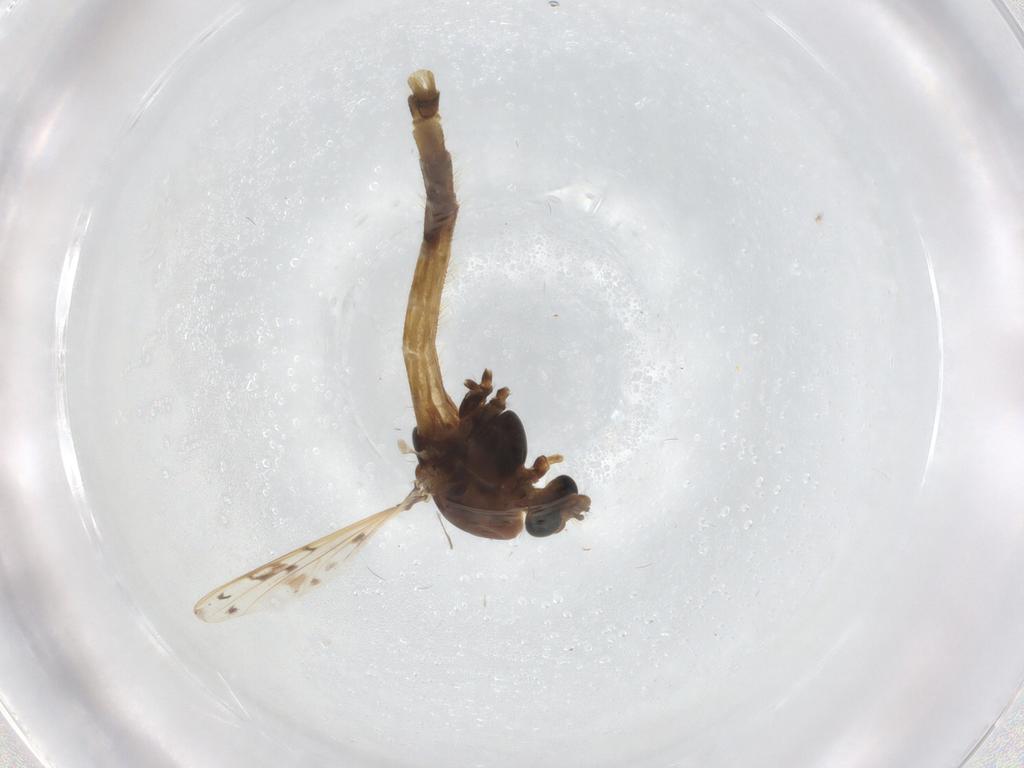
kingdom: Animalia
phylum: Arthropoda
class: Insecta
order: Diptera
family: Chironomidae
